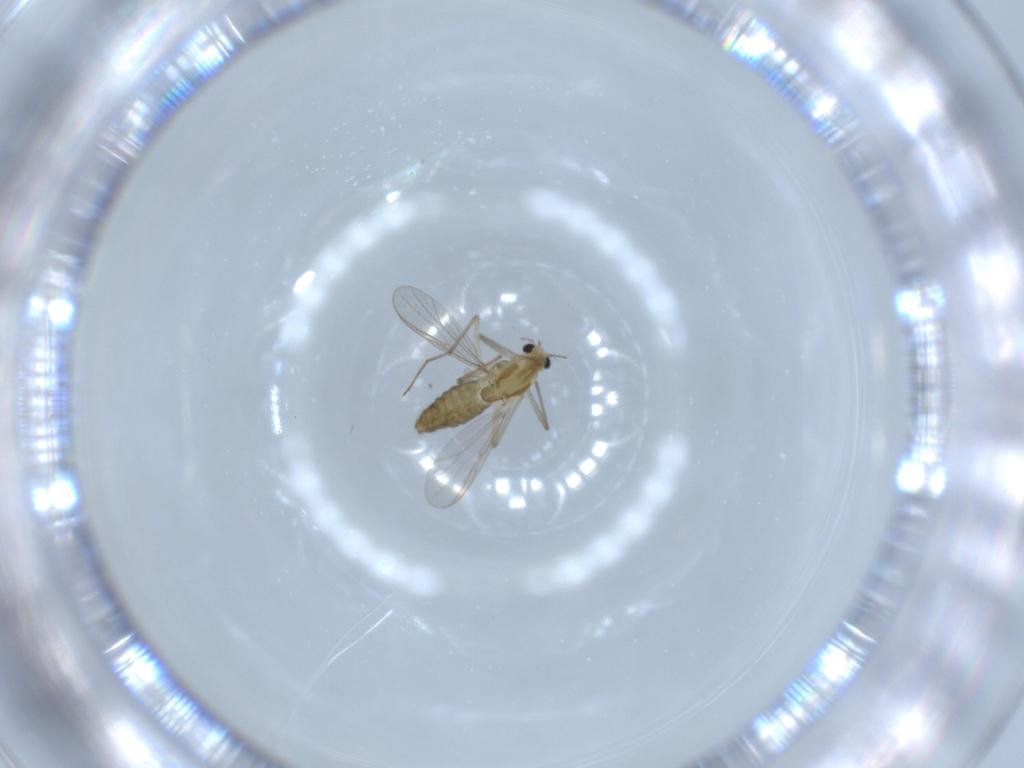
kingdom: Animalia
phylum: Arthropoda
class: Insecta
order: Diptera
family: Chironomidae
